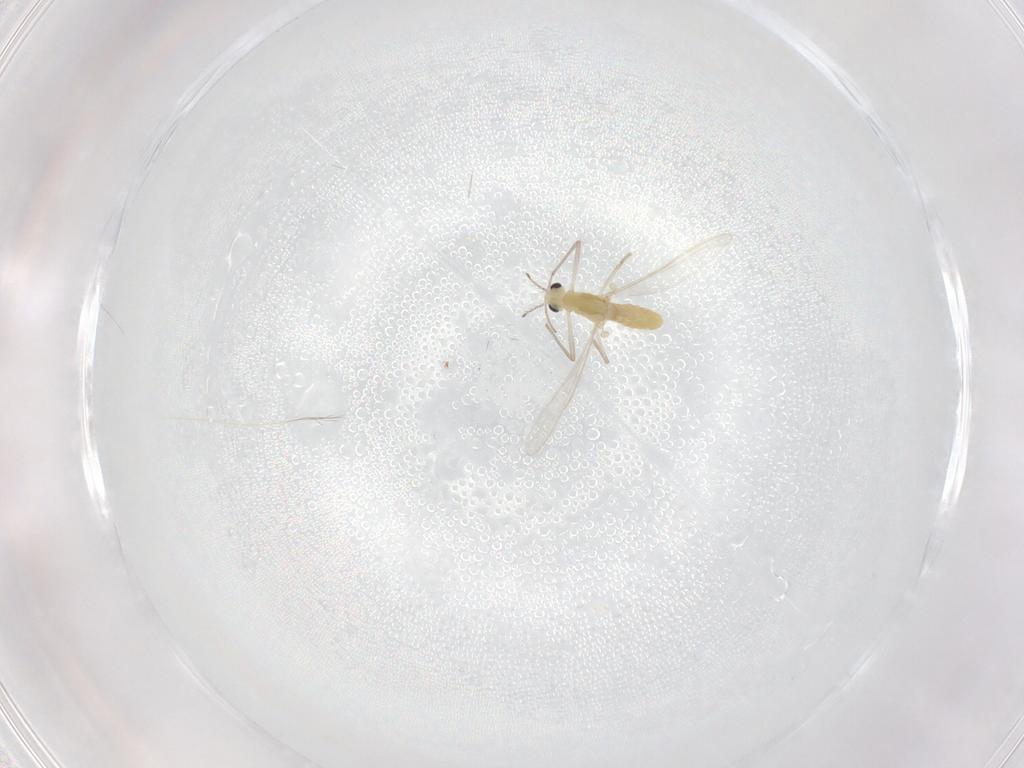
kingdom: Animalia
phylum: Arthropoda
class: Insecta
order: Diptera
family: Chironomidae
